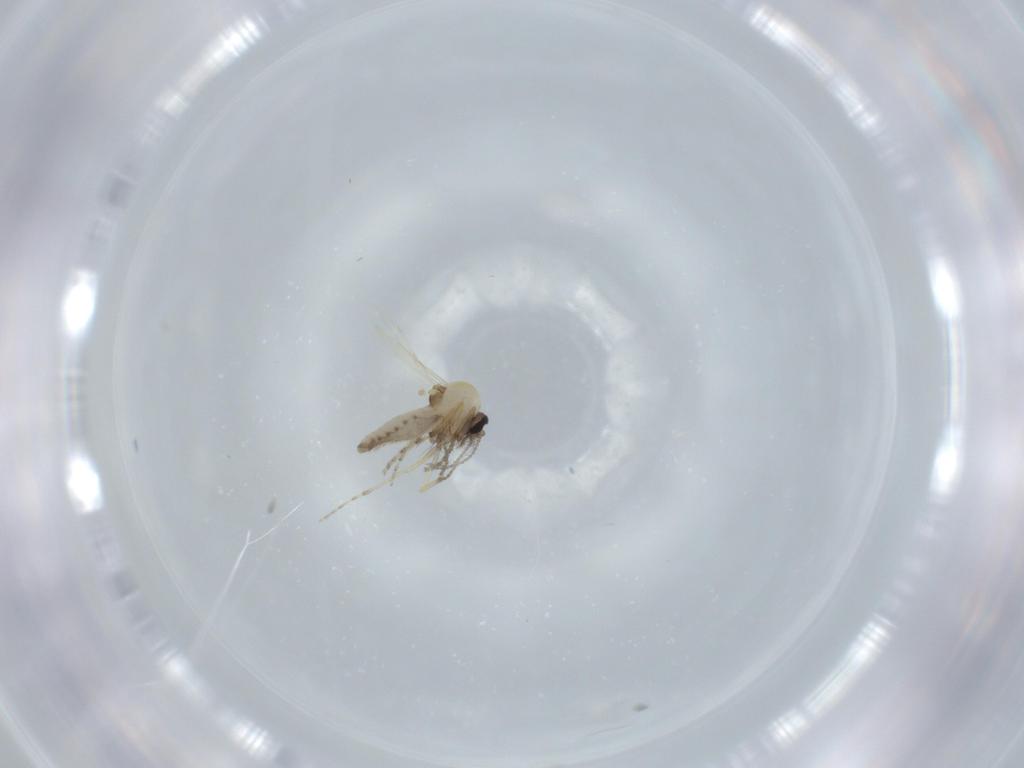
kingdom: Animalia
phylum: Arthropoda
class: Insecta
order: Diptera
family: Ceratopogonidae
